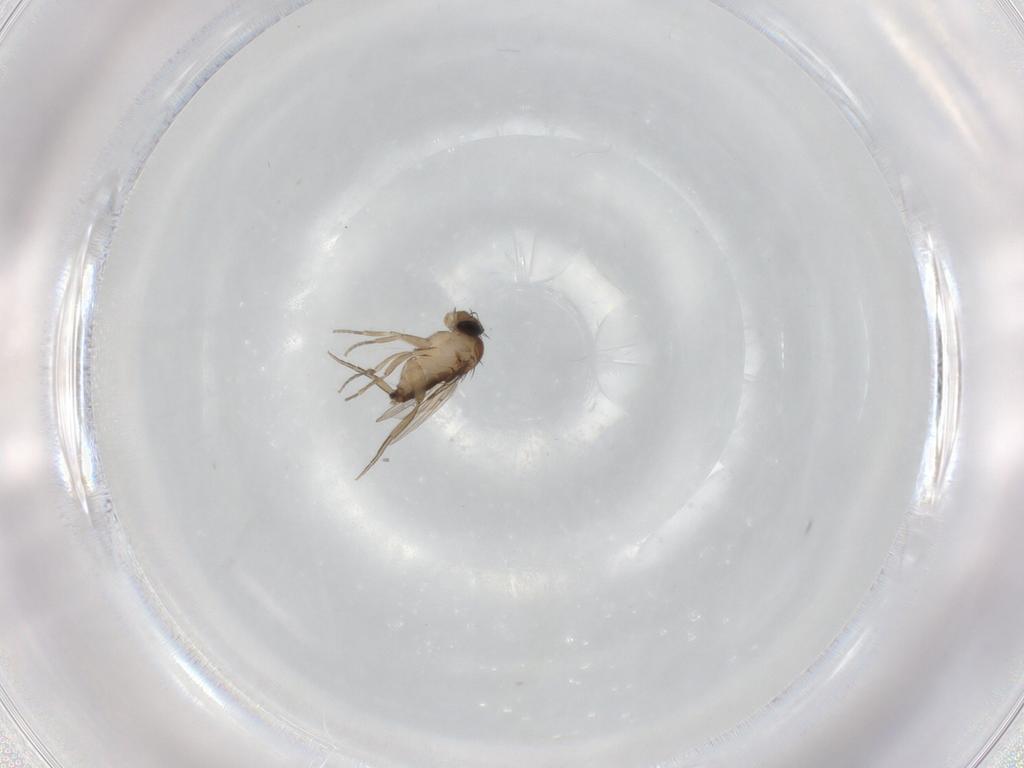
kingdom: Animalia
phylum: Arthropoda
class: Insecta
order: Diptera
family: Phoridae
